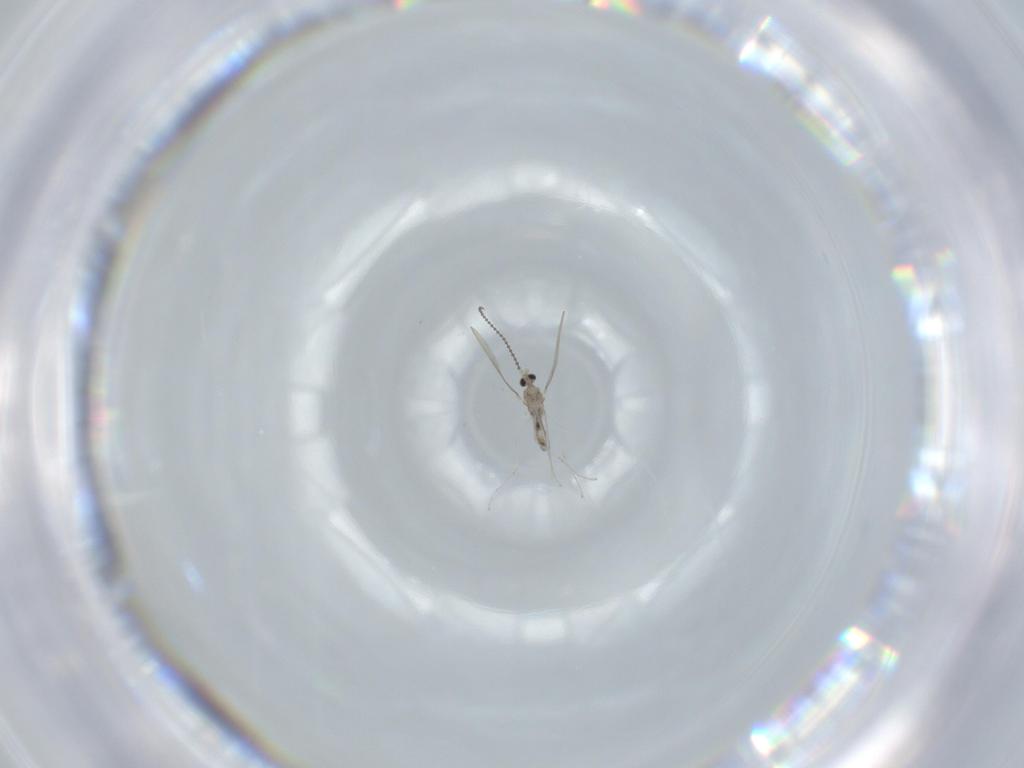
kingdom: Animalia
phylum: Arthropoda
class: Insecta
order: Diptera
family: Cecidomyiidae
